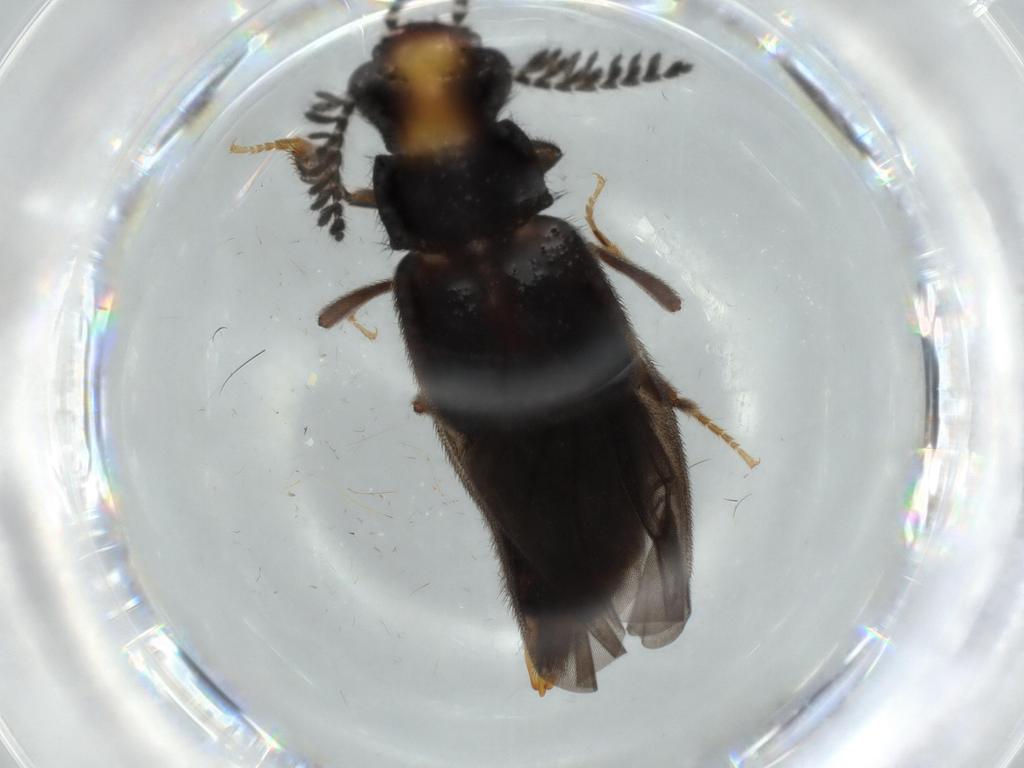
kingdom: Animalia
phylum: Arthropoda
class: Insecta
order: Coleoptera
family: Phengodidae
